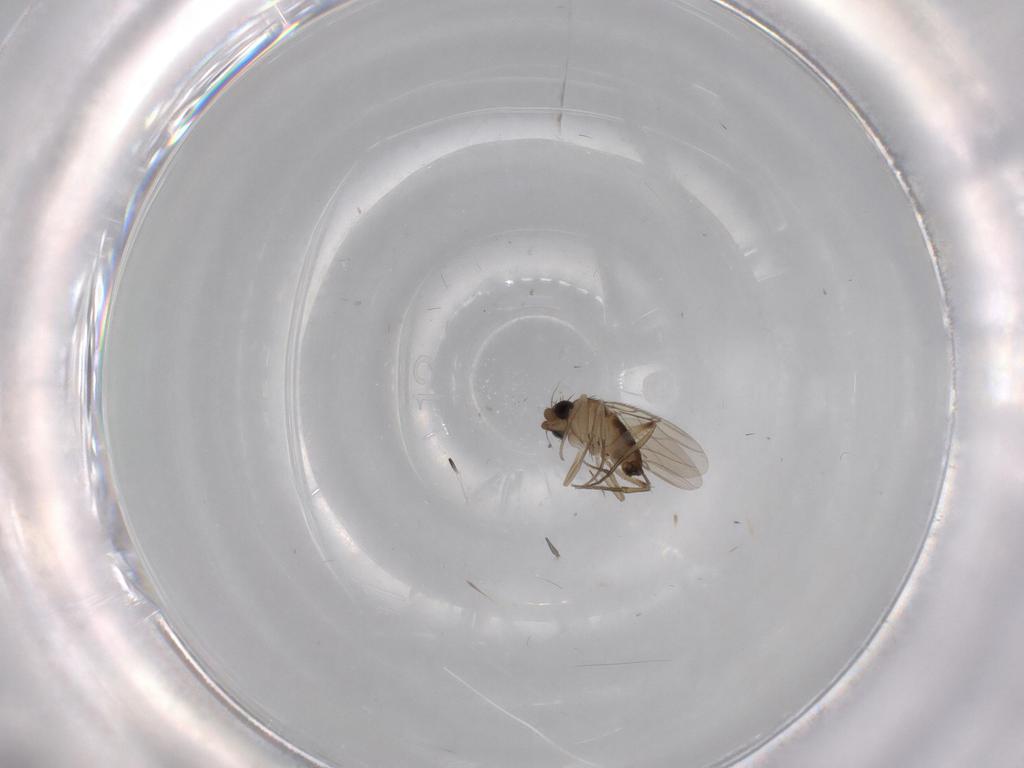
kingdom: Animalia
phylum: Arthropoda
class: Insecta
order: Diptera
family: Phoridae
